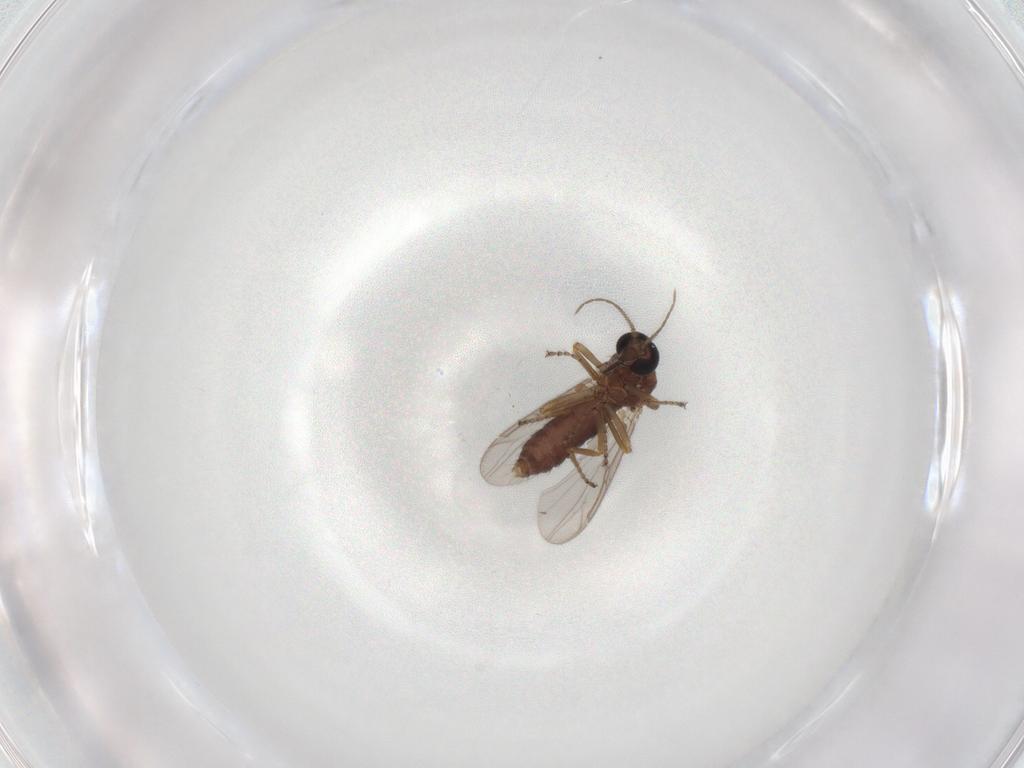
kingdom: Animalia
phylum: Arthropoda
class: Insecta
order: Diptera
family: Ceratopogonidae
